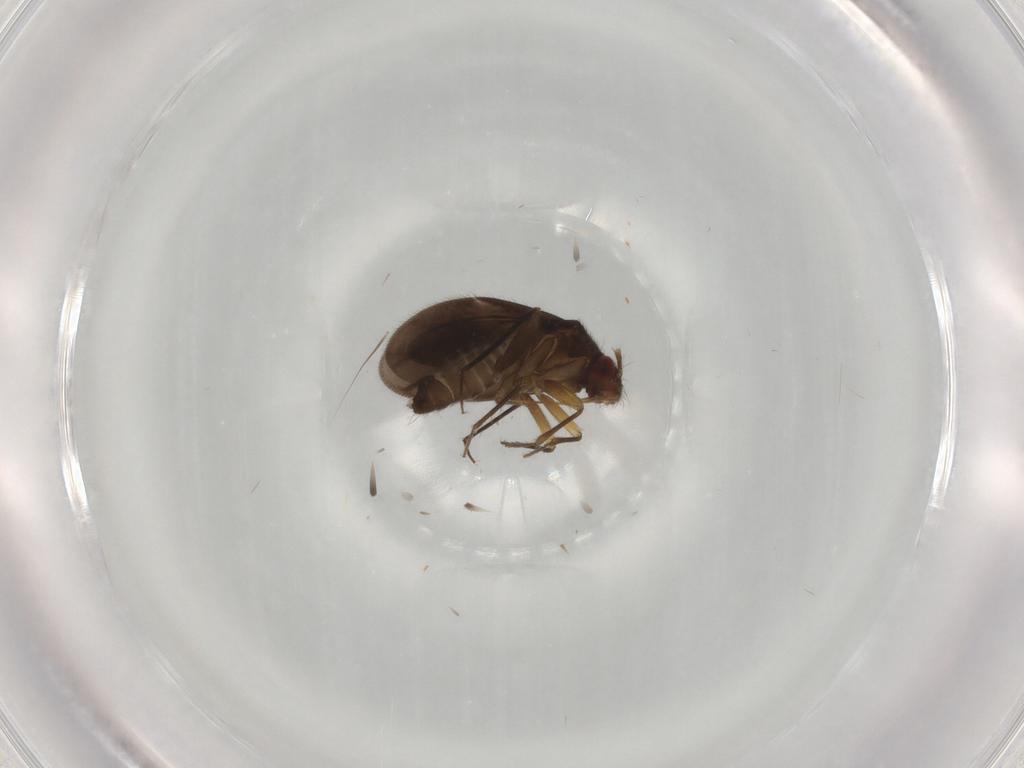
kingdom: Animalia
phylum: Arthropoda
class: Insecta
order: Hemiptera
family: Ceratocombidae
